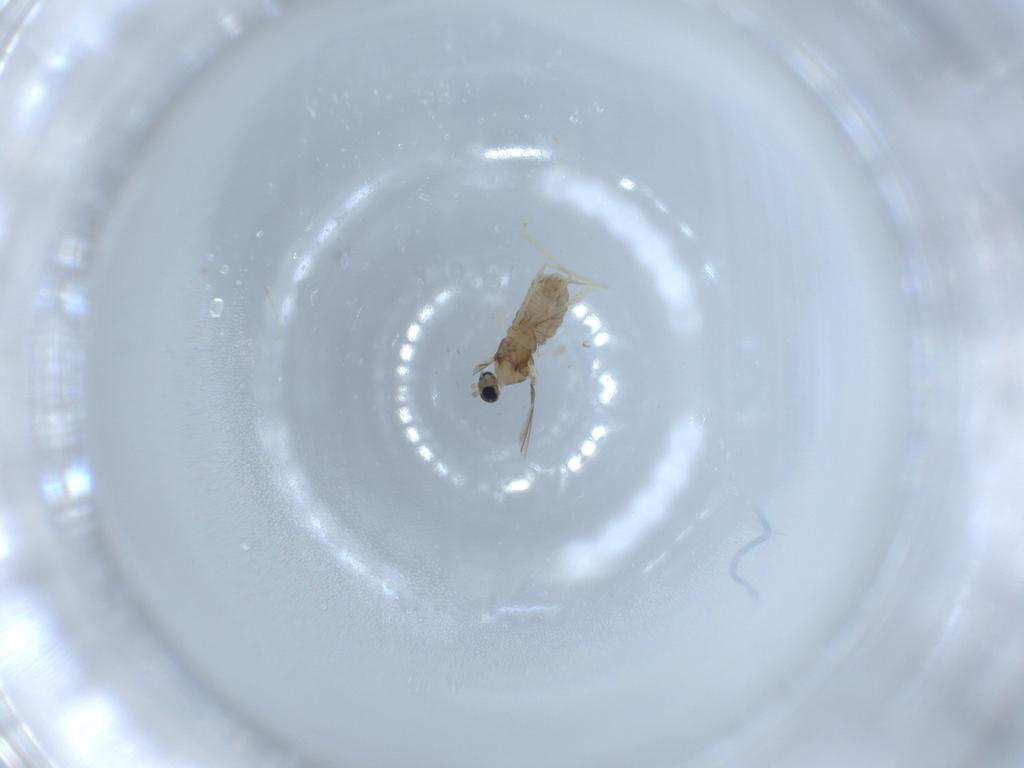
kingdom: Animalia
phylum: Arthropoda
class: Insecta
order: Diptera
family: Cecidomyiidae
